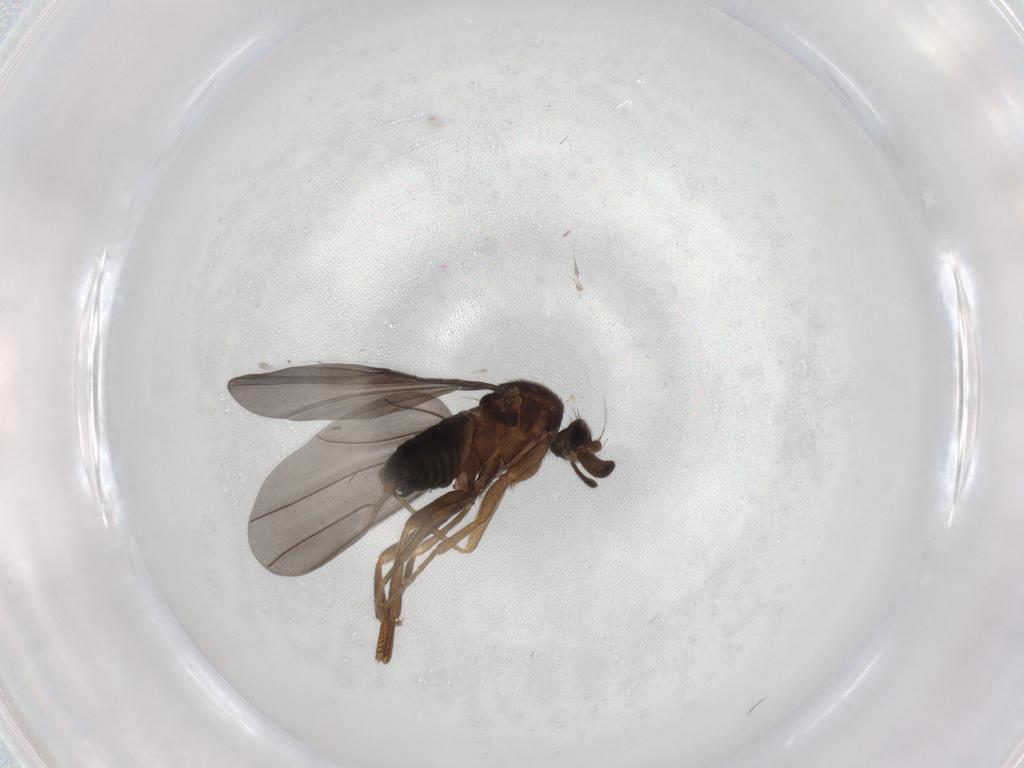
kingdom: Animalia
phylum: Arthropoda
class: Insecta
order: Diptera
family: Phoridae
